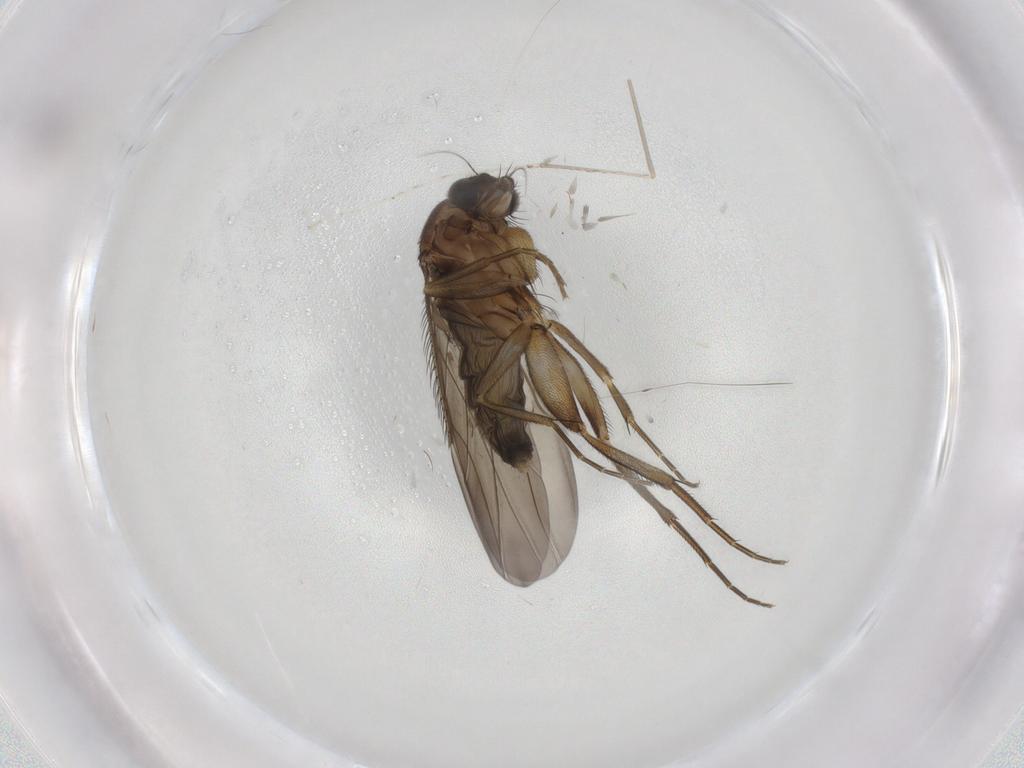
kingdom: Animalia
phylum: Arthropoda
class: Insecta
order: Diptera
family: Phoridae
